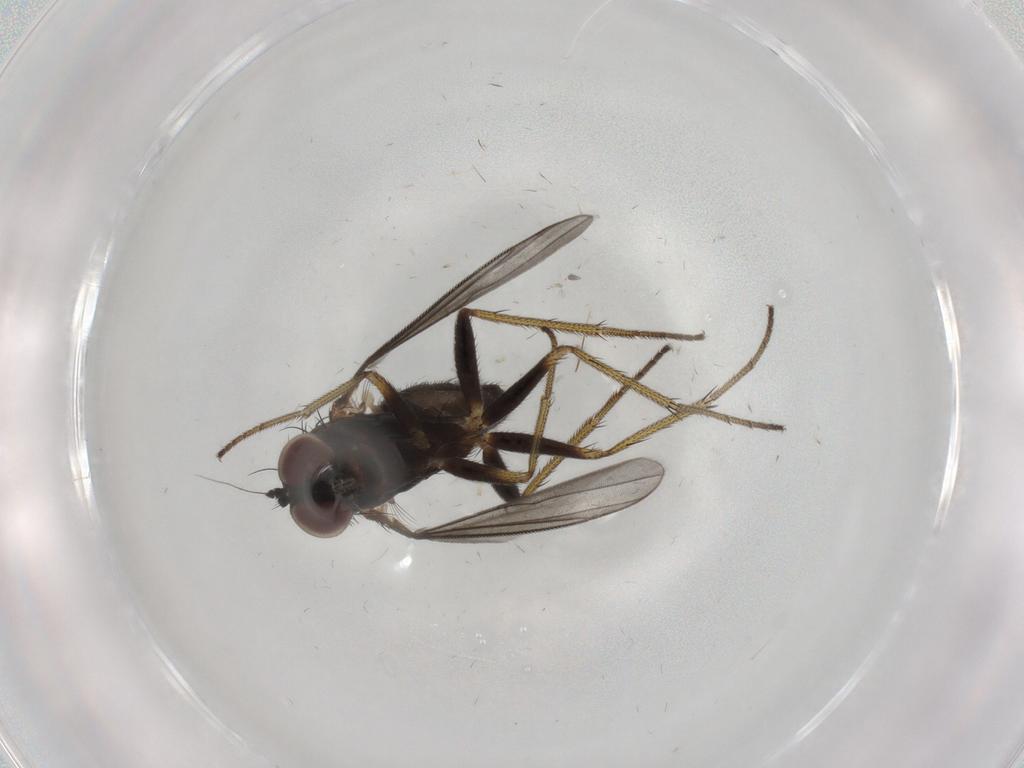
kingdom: Animalia
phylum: Arthropoda
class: Insecta
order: Diptera
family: Dolichopodidae
